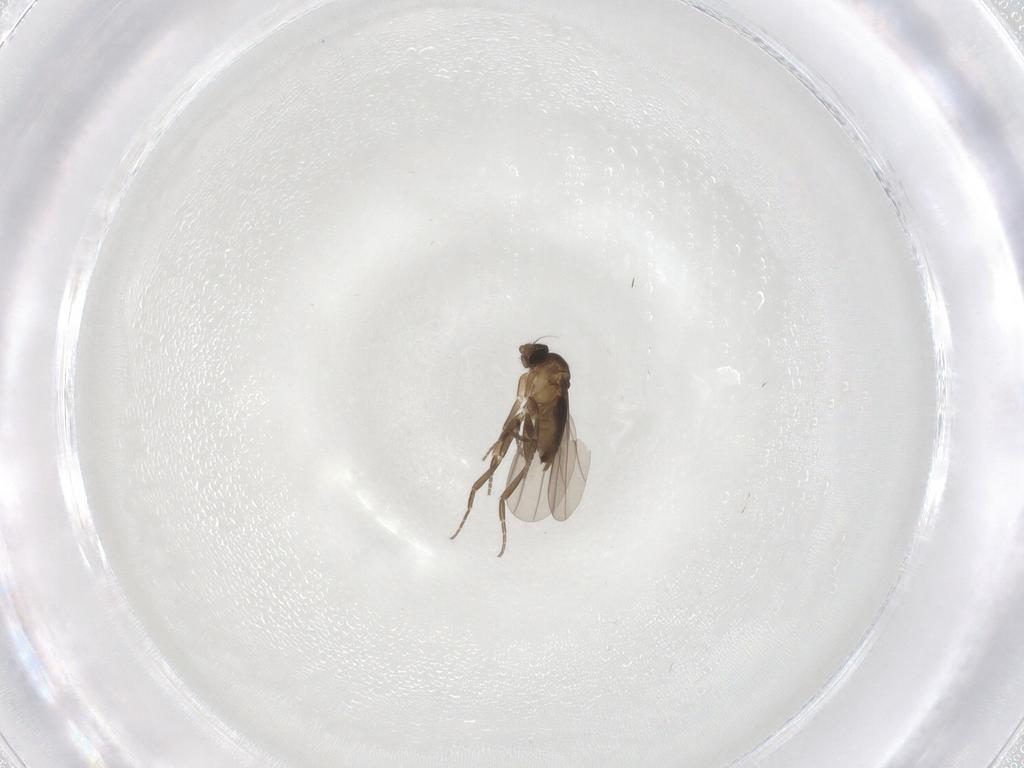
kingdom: Animalia
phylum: Arthropoda
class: Insecta
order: Diptera
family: Phoridae
